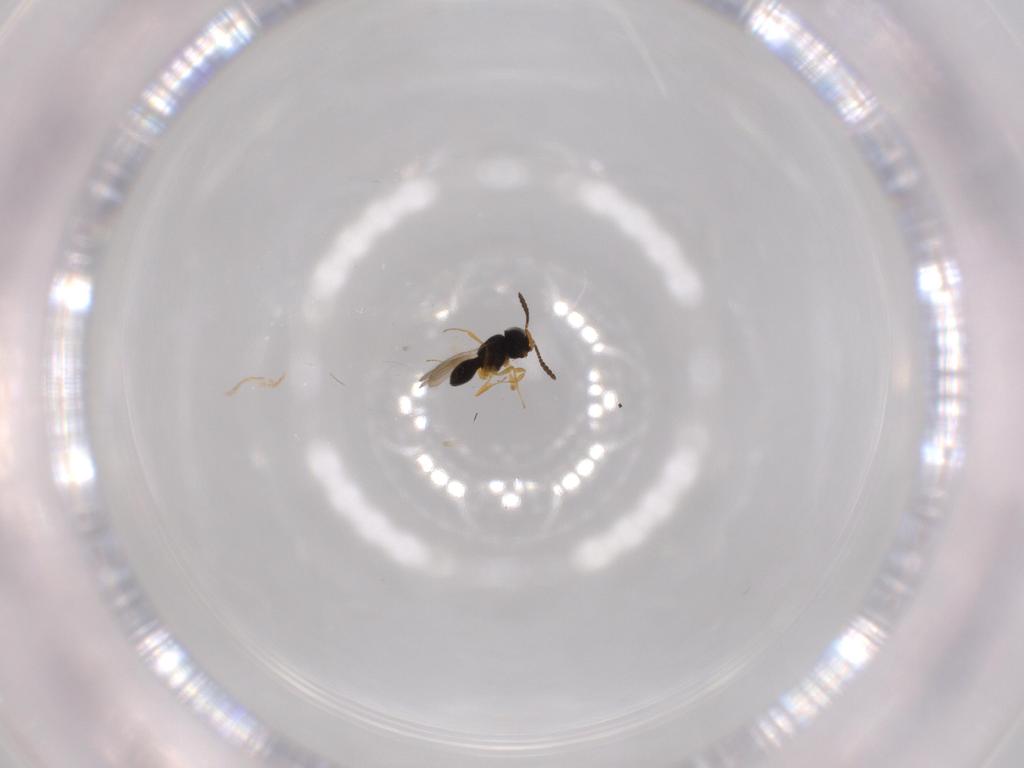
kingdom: Animalia
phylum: Arthropoda
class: Insecta
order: Hymenoptera
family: Scelionidae
